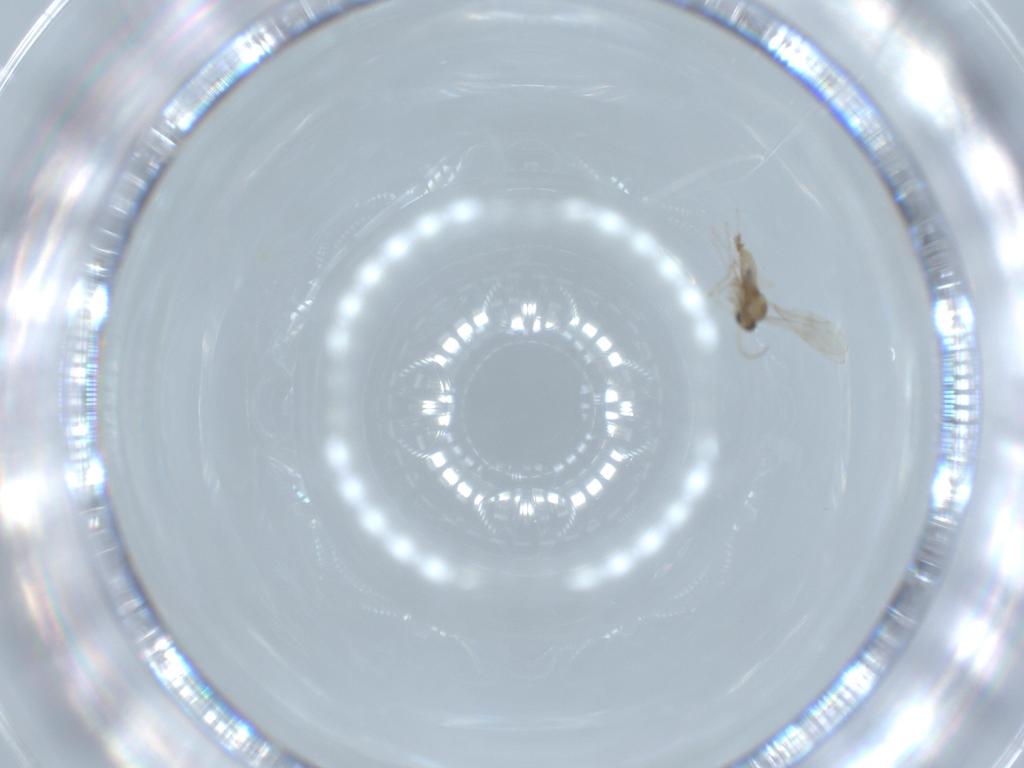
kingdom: Animalia
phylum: Arthropoda
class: Insecta
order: Diptera
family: Cecidomyiidae
